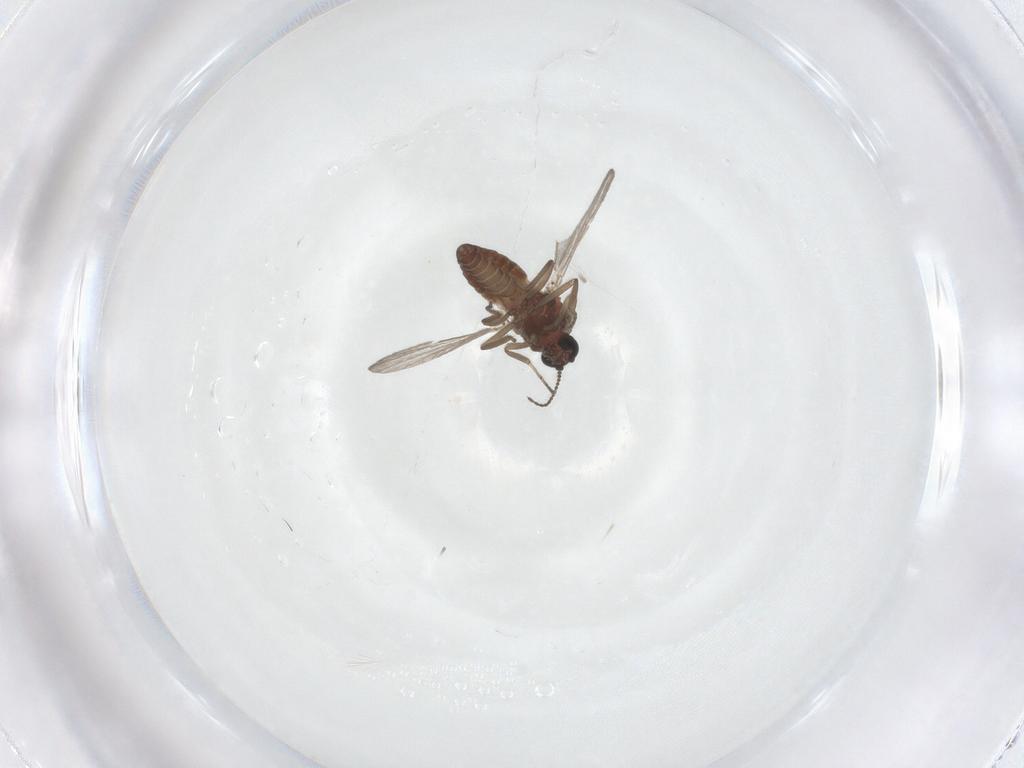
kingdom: Animalia
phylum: Arthropoda
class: Insecta
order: Diptera
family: Ceratopogonidae
